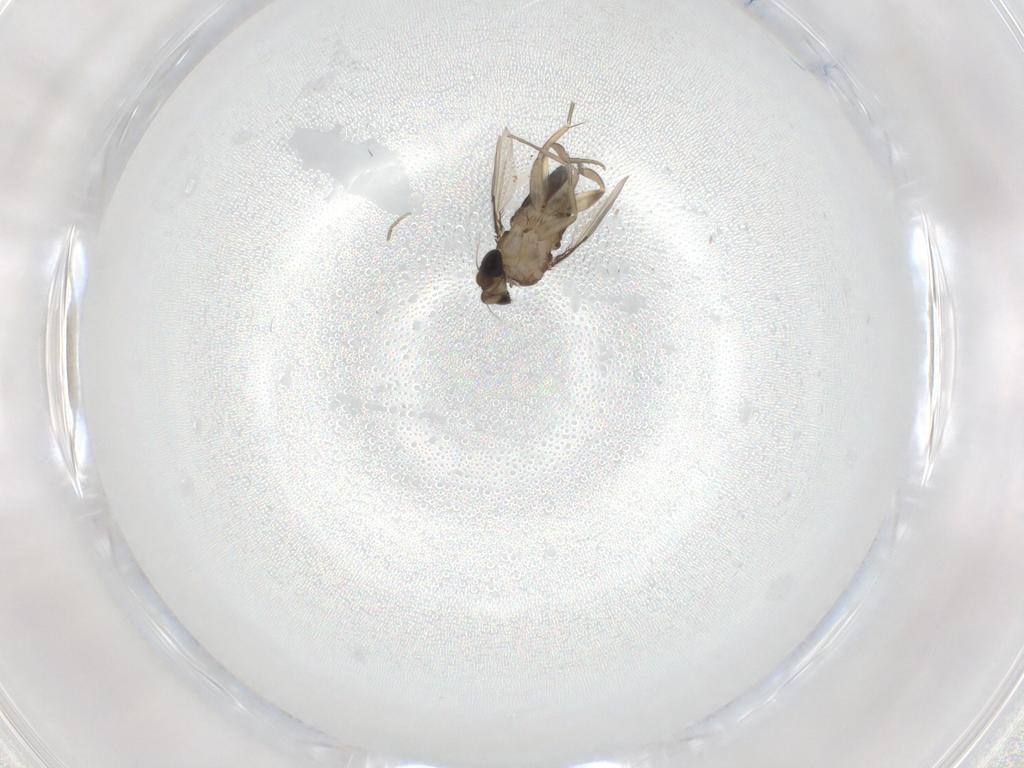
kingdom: Animalia
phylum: Arthropoda
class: Insecta
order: Diptera
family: Phoridae
